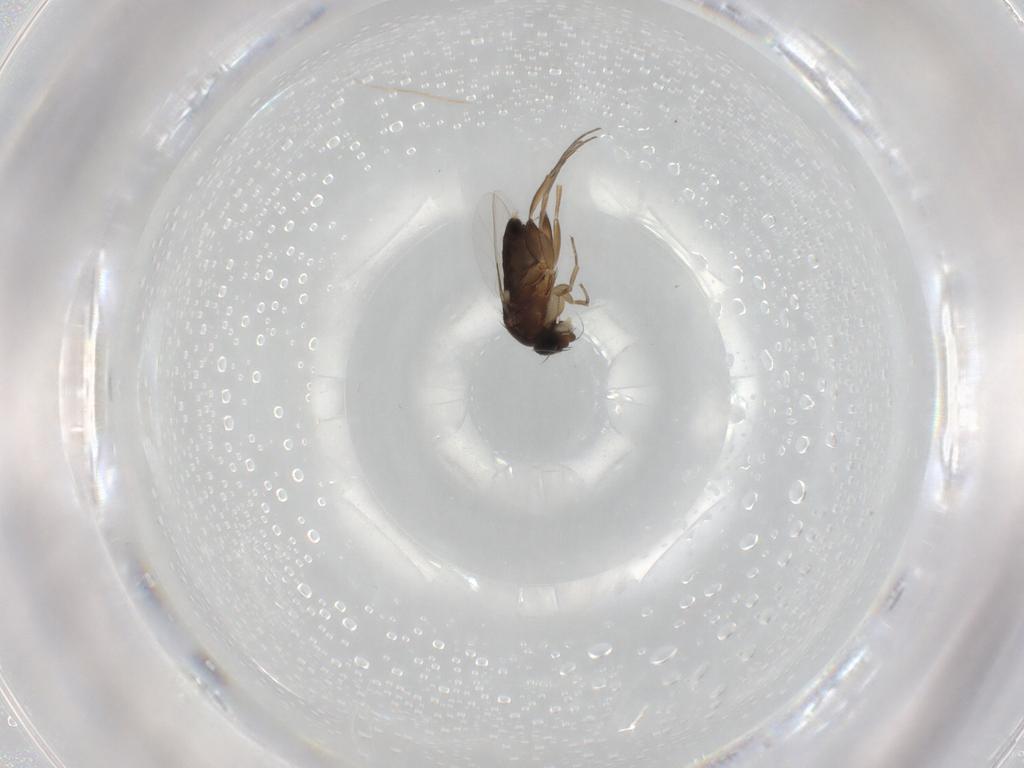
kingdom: Animalia
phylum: Arthropoda
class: Insecta
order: Diptera
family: Phoridae
